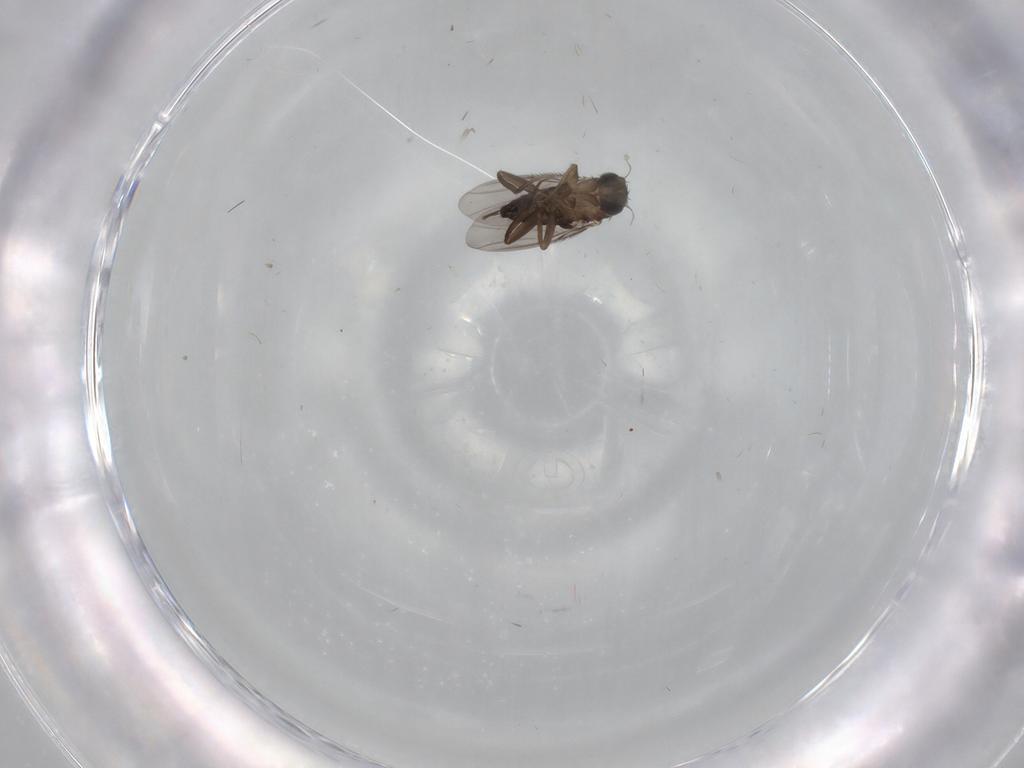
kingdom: Animalia
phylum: Arthropoda
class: Insecta
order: Diptera
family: Phoridae
